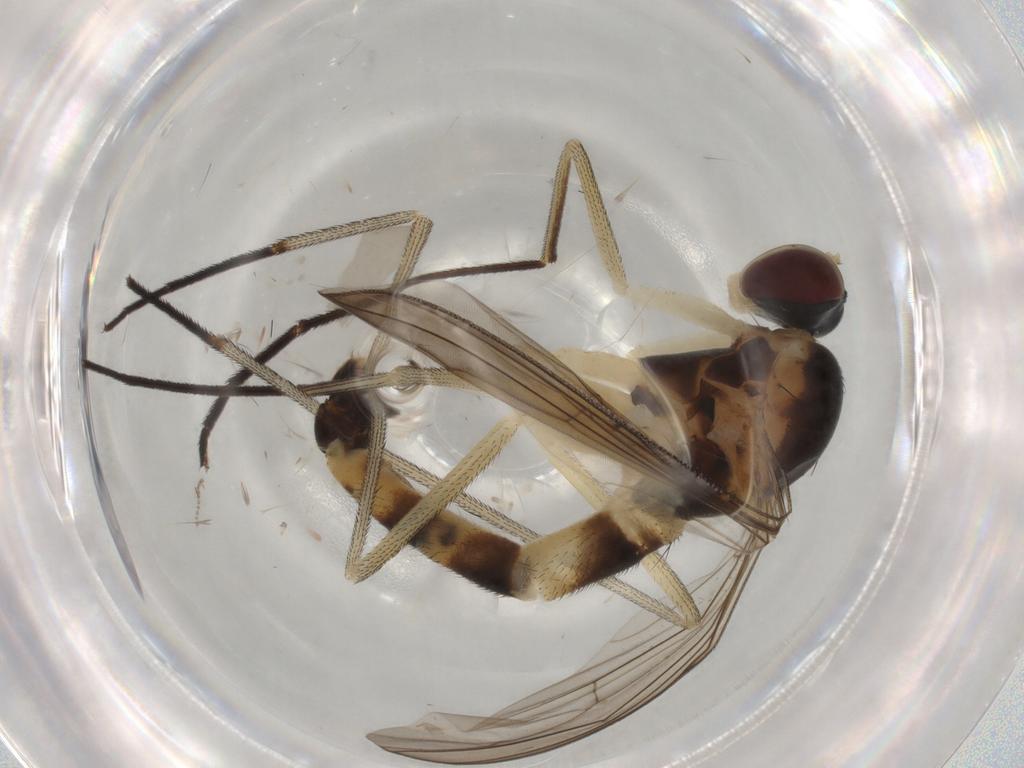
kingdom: Animalia
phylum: Arthropoda
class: Insecta
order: Diptera
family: Cecidomyiidae
